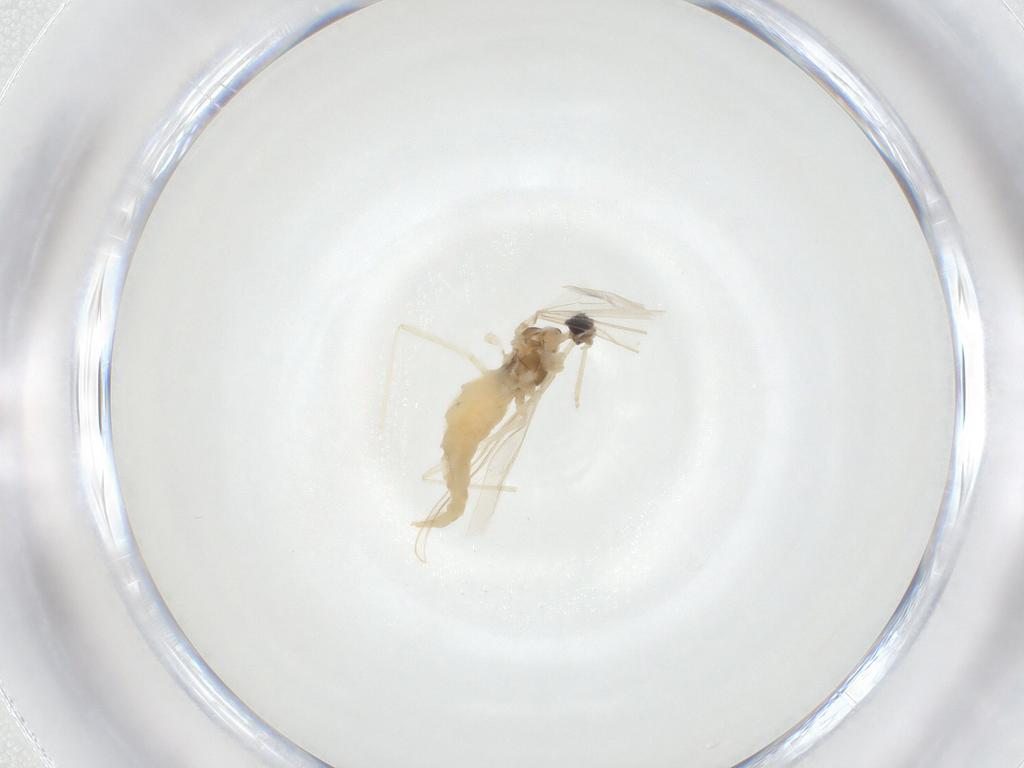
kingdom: Animalia
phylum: Arthropoda
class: Insecta
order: Diptera
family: Cecidomyiidae
